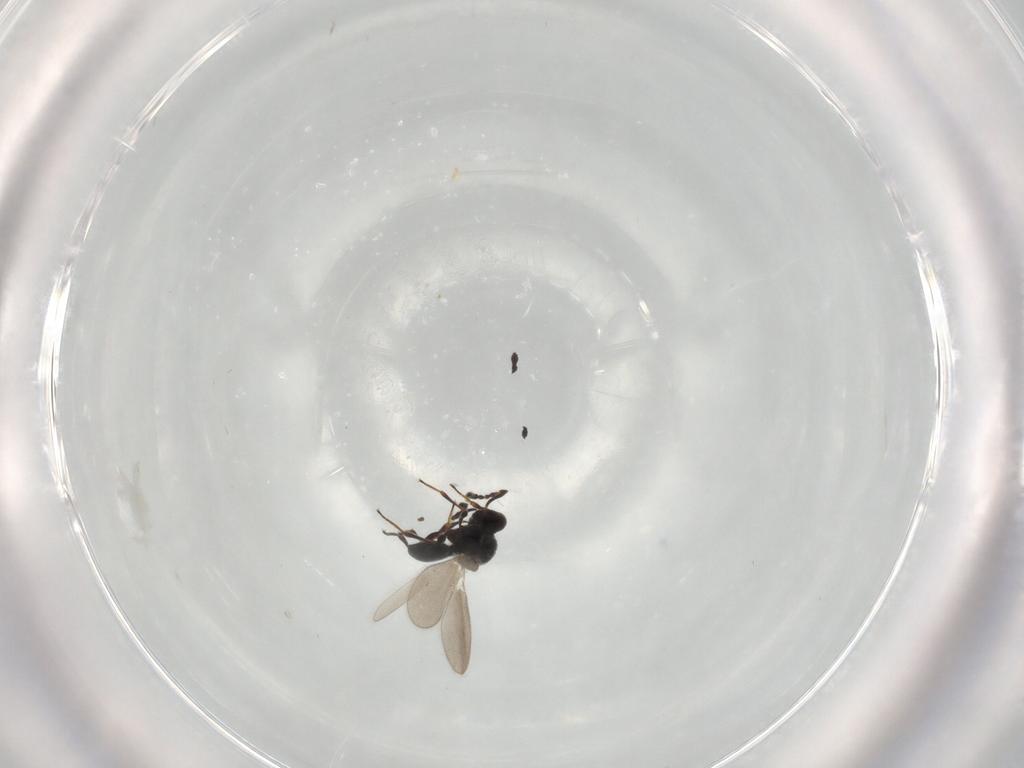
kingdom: Animalia
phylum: Arthropoda
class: Insecta
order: Hymenoptera
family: Platygastridae
